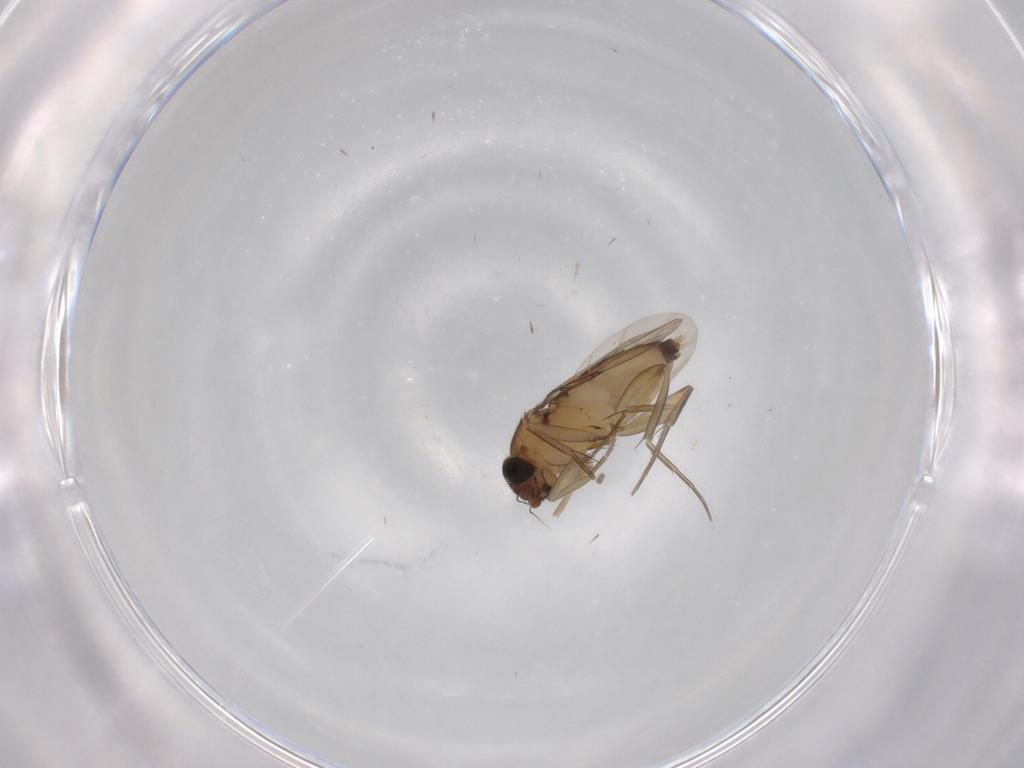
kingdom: Animalia
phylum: Arthropoda
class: Insecta
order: Diptera
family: Phoridae
